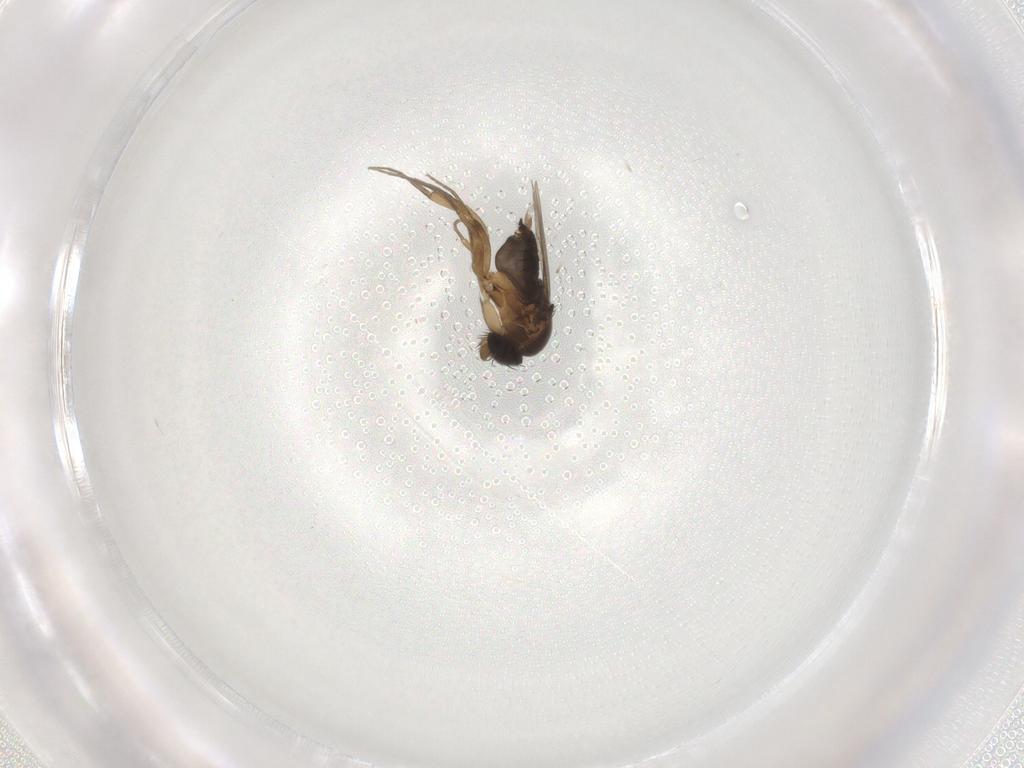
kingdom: Animalia
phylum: Arthropoda
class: Insecta
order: Diptera
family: Phoridae
